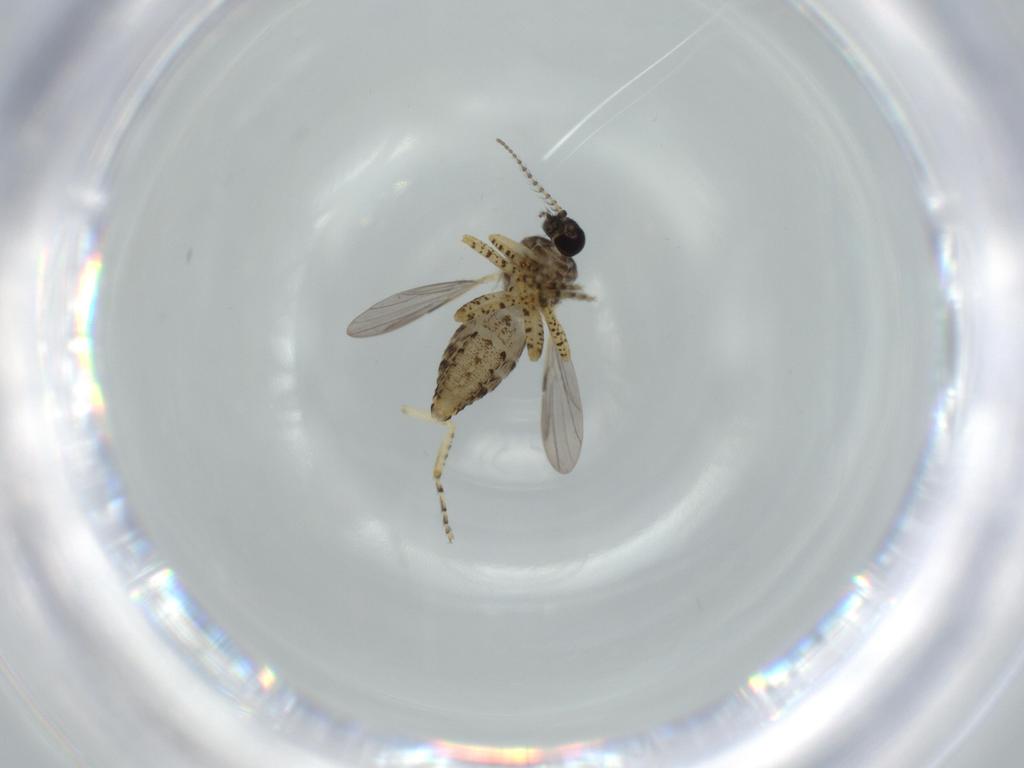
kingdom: Animalia
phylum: Arthropoda
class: Insecta
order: Diptera
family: Ceratopogonidae
